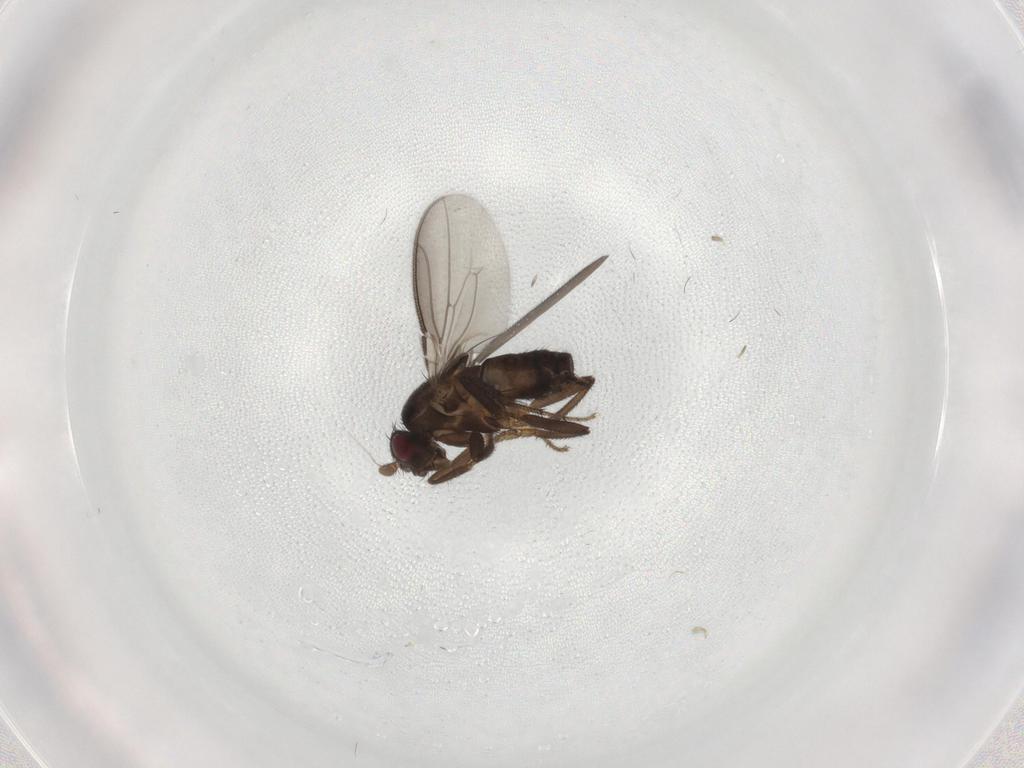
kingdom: Animalia
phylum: Arthropoda
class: Insecta
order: Diptera
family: Sphaeroceridae
